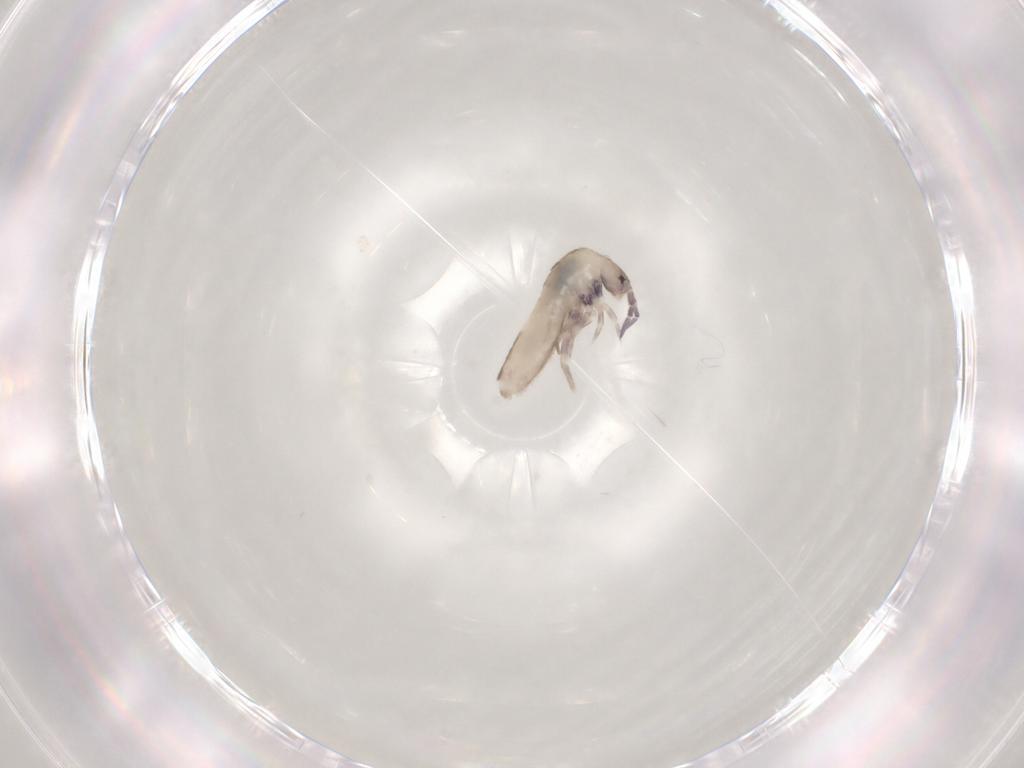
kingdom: Animalia
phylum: Arthropoda
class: Collembola
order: Entomobryomorpha
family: Entomobryidae
